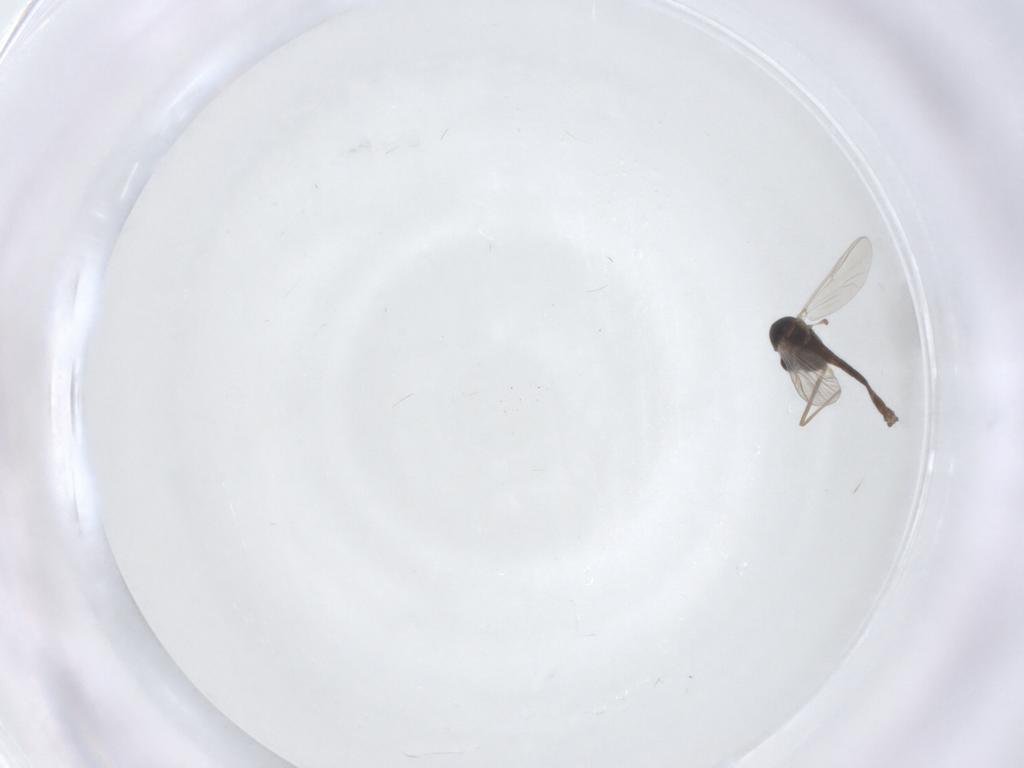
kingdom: Animalia
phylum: Arthropoda
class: Insecta
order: Diptera
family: Chironomidae
